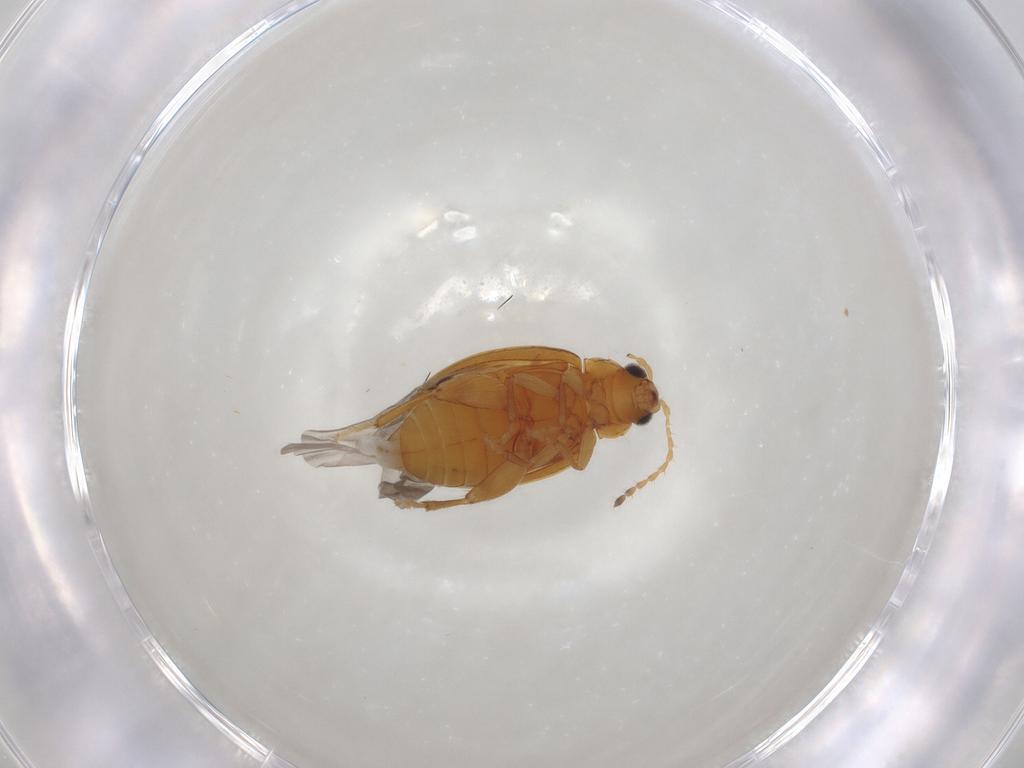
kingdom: Animalia
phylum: Arthropoda
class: Insecta
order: Coleoptera
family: Chrysomelidae
